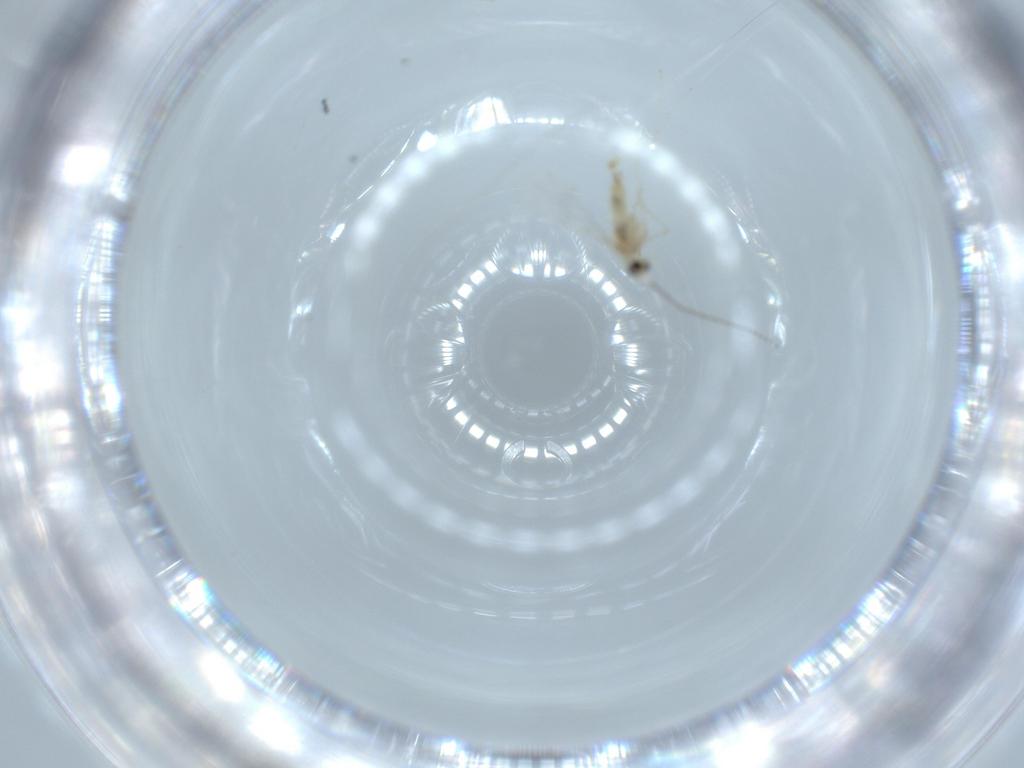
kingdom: Animalia
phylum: Arthropoda
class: Insecta
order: Diptera
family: Cecidomyiidae
